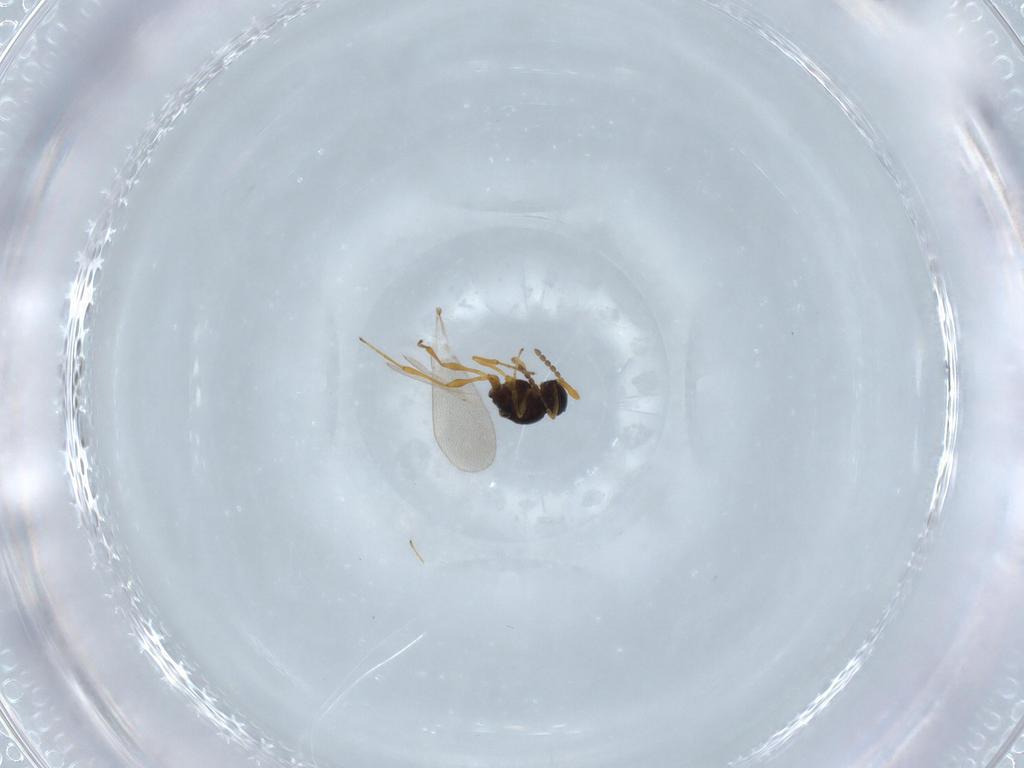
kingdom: Animalia
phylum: Arthropoda
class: Insecta
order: Diptera
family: Mythicomyiidae
